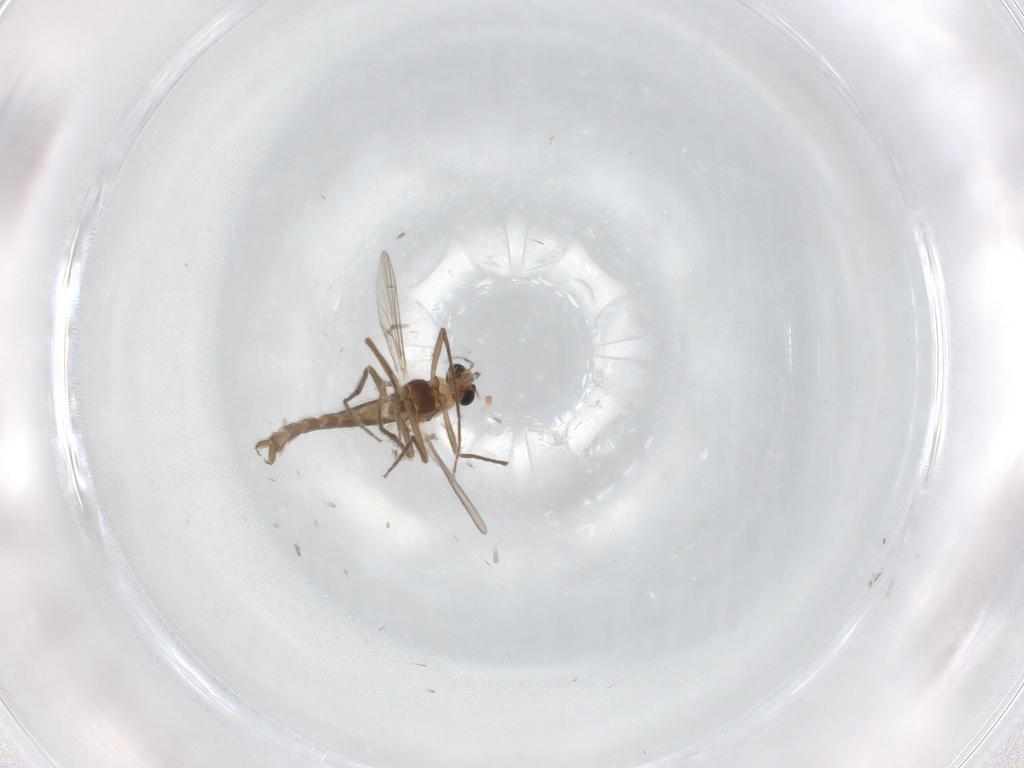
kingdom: Animalia
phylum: Arthropoda
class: Insecta
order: Diptera
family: Chironomidae
